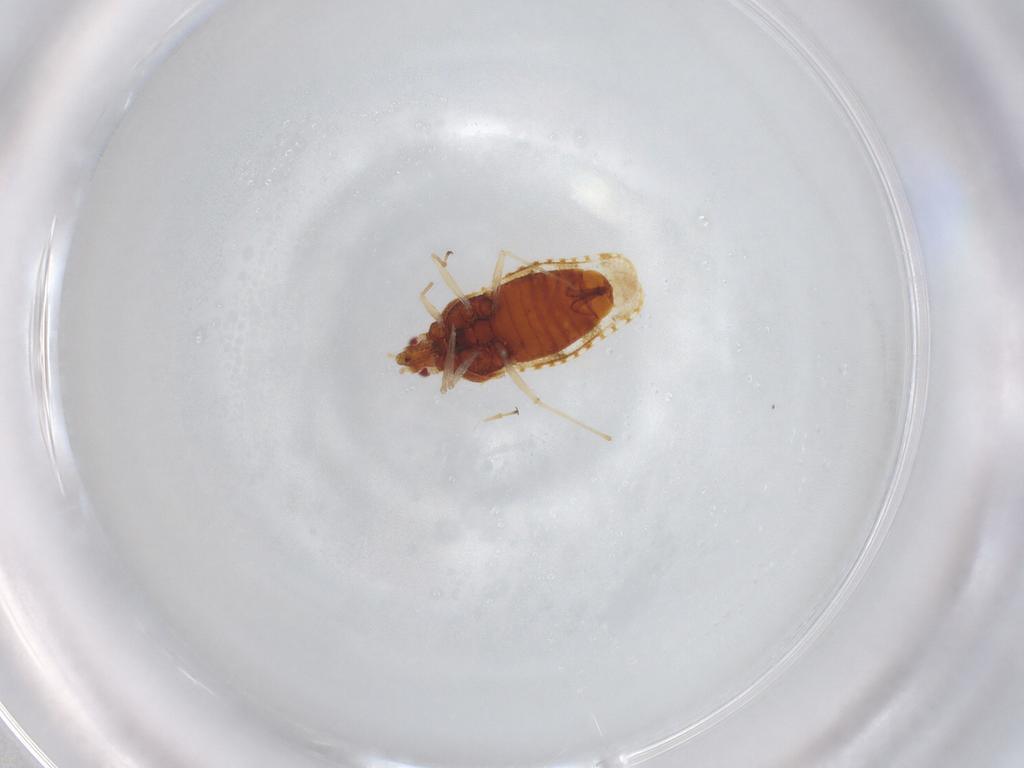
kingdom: Animalia
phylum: Arthropoda
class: Insecta
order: Hemiptera
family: Tingidae
